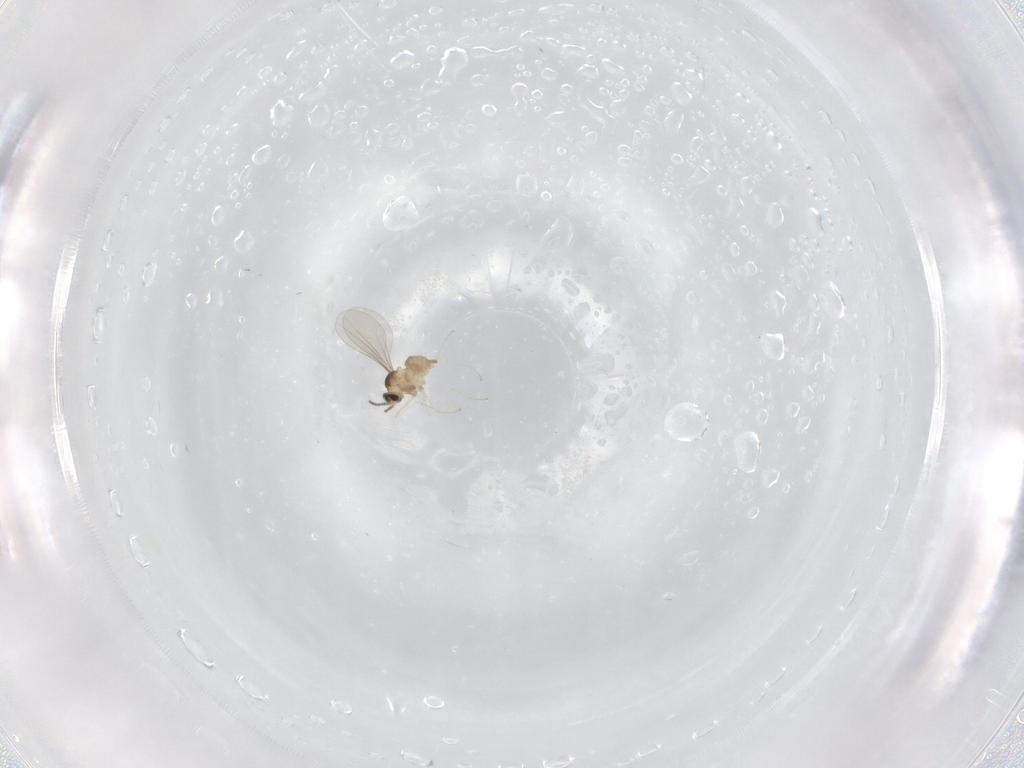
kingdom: Animalia
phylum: Arthropoda
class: Insecta
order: Diptera
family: Cecidomyiidae
